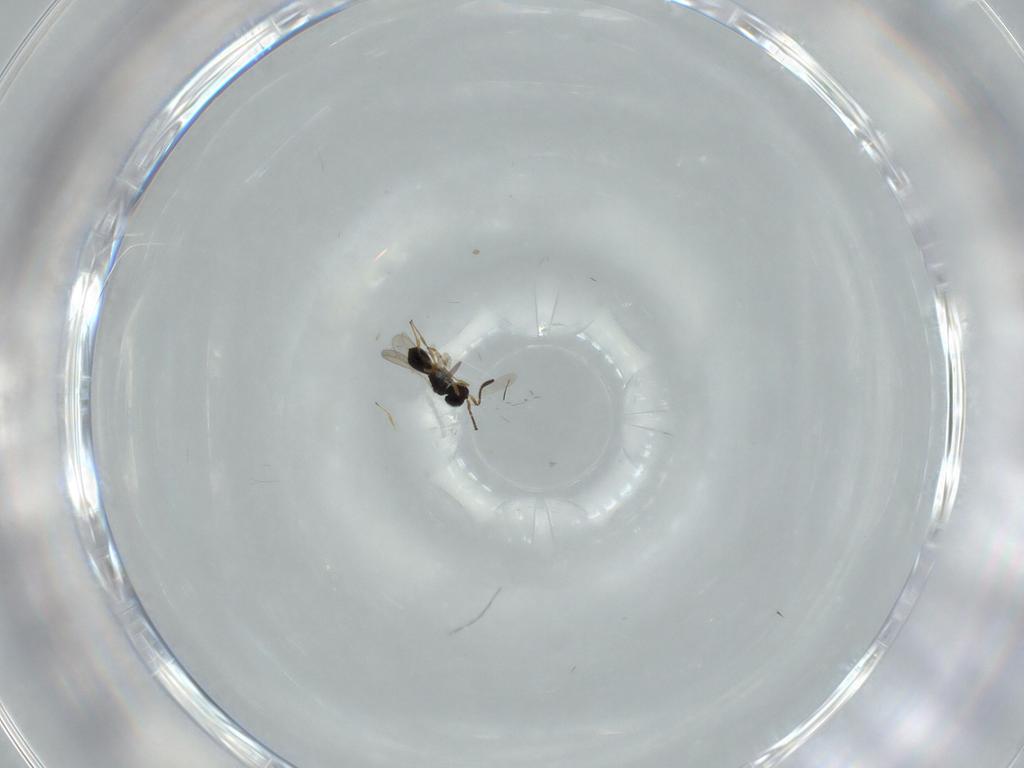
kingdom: Animalia
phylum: Arthropoda
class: Insecta
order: Hymenoptera
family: Scelionidae
